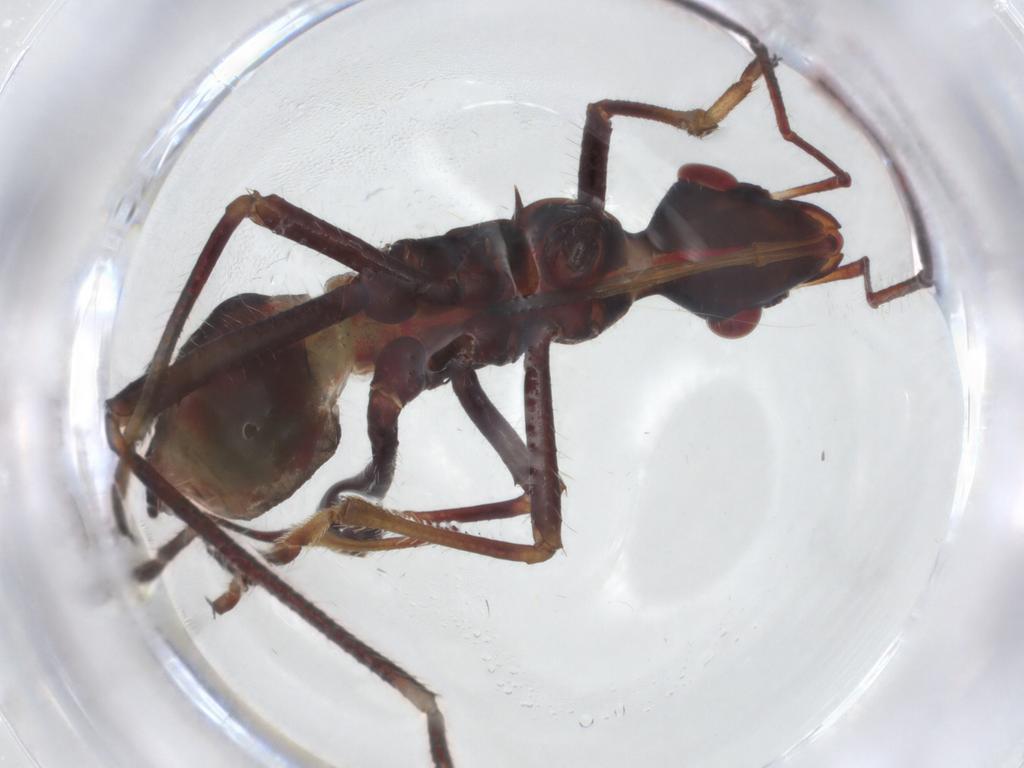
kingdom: Animalia
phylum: Arthropoda
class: Insecta
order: Hemiptera
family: Alydidae
